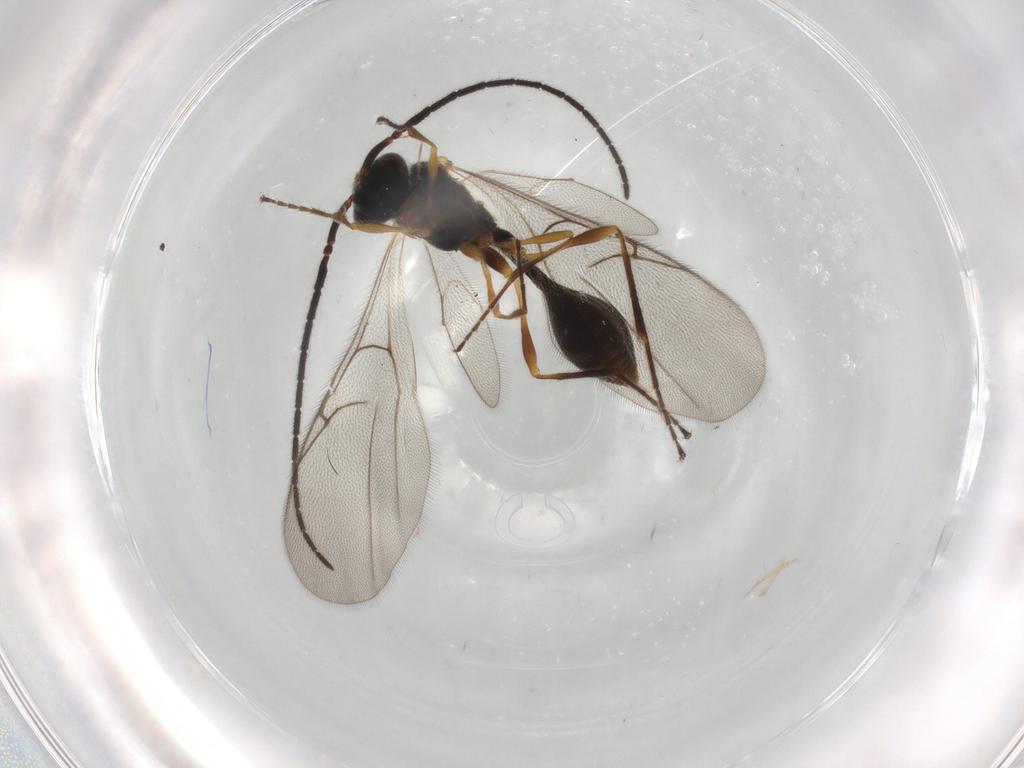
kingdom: Animalia
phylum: Arthropoda
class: Insecta
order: Hymenoptera
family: Diapriidae
